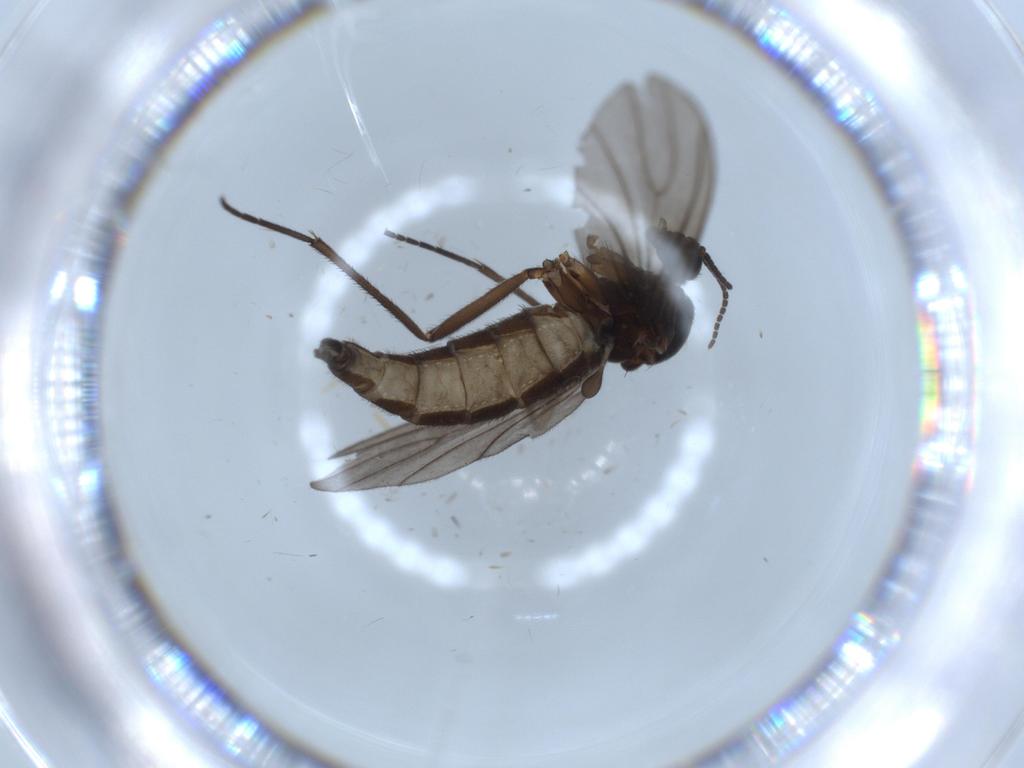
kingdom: Animalia
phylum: Arthropoda
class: Insecta
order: Diptera
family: Sciaridae
